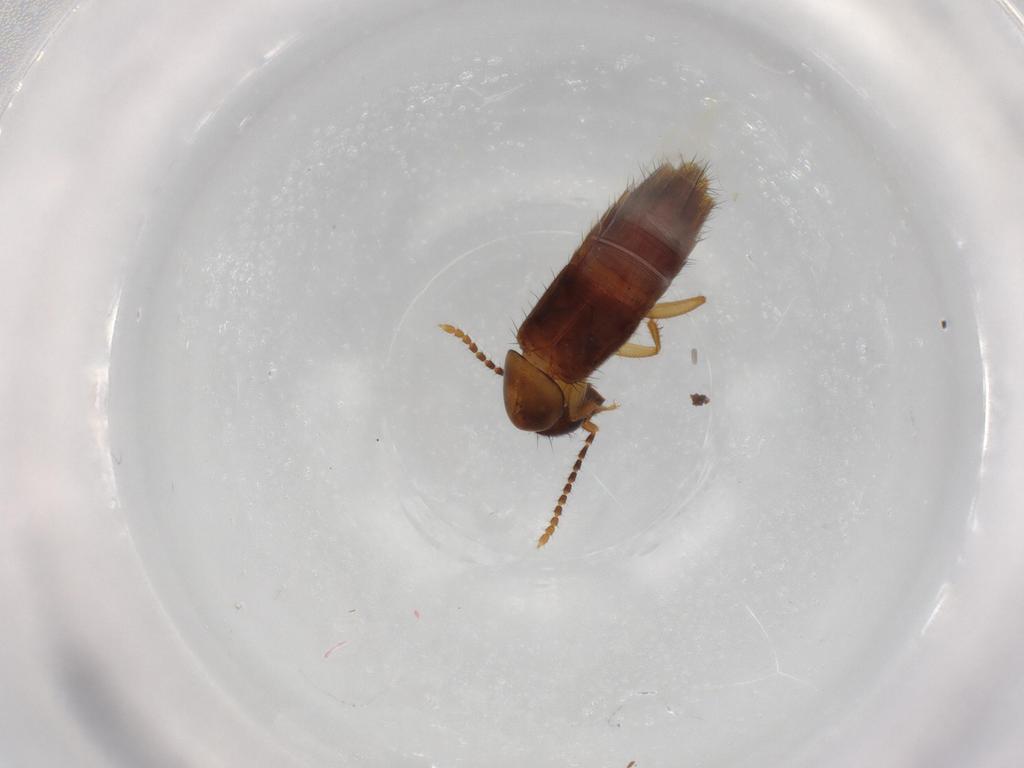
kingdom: Animalia
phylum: Arthropoda
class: Insecta
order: Coleoptera
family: Staphylinidae
